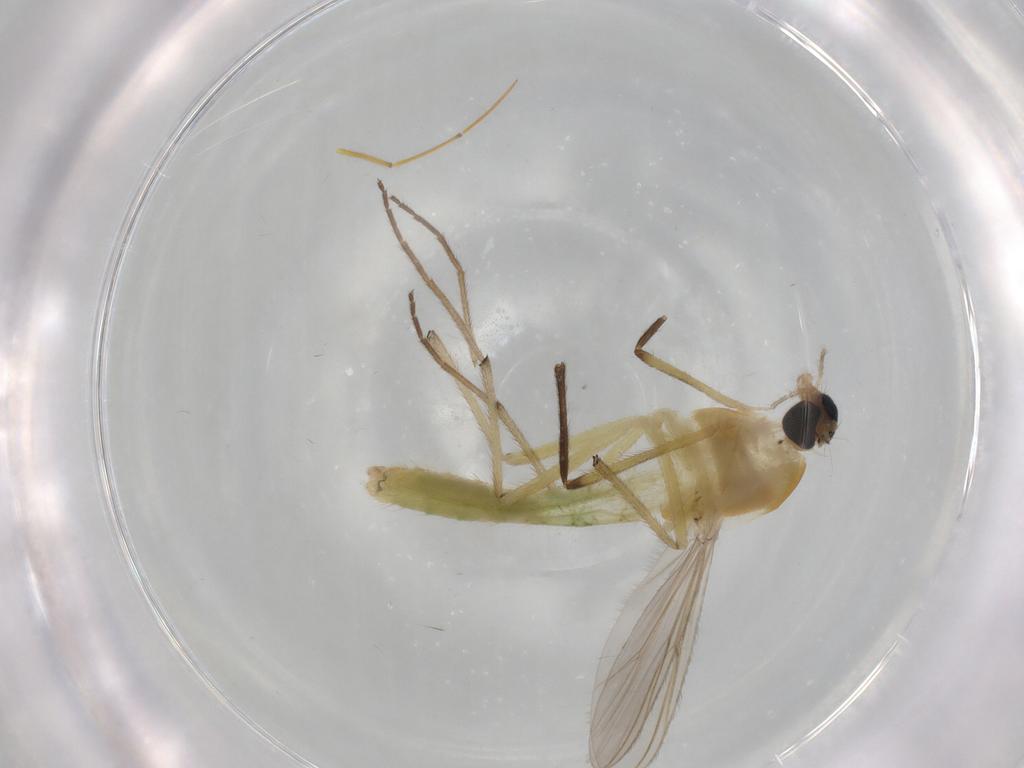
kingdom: Animalia
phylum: Arthropoda
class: Insecta
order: Diptera
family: Chironomidae
